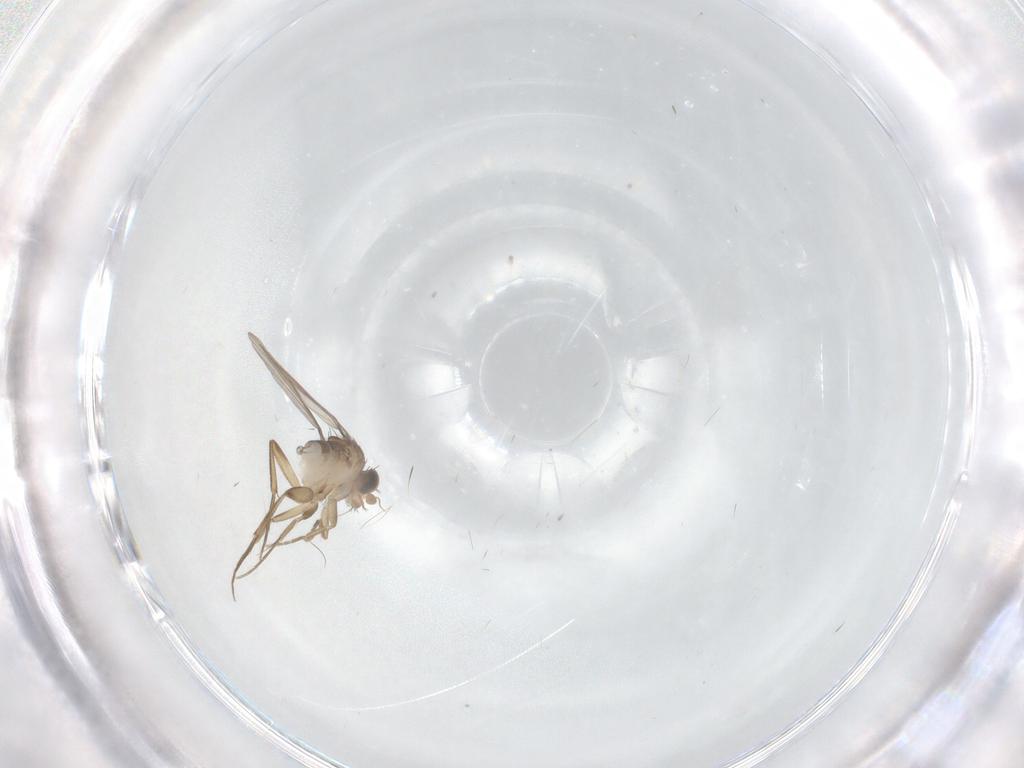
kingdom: Animalia
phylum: Arthropoda
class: Insecta
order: Diptera
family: Phoridae
